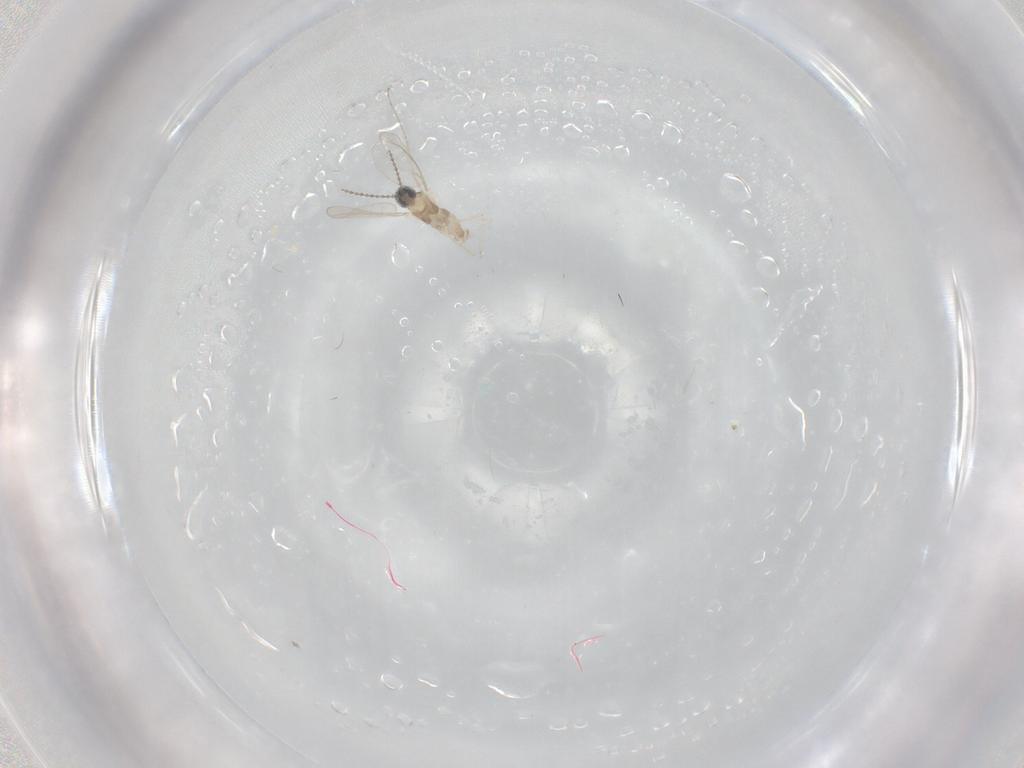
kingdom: Animalia
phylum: Arthropoda
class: Insecta
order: Diptera
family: Cecidomyiidae
